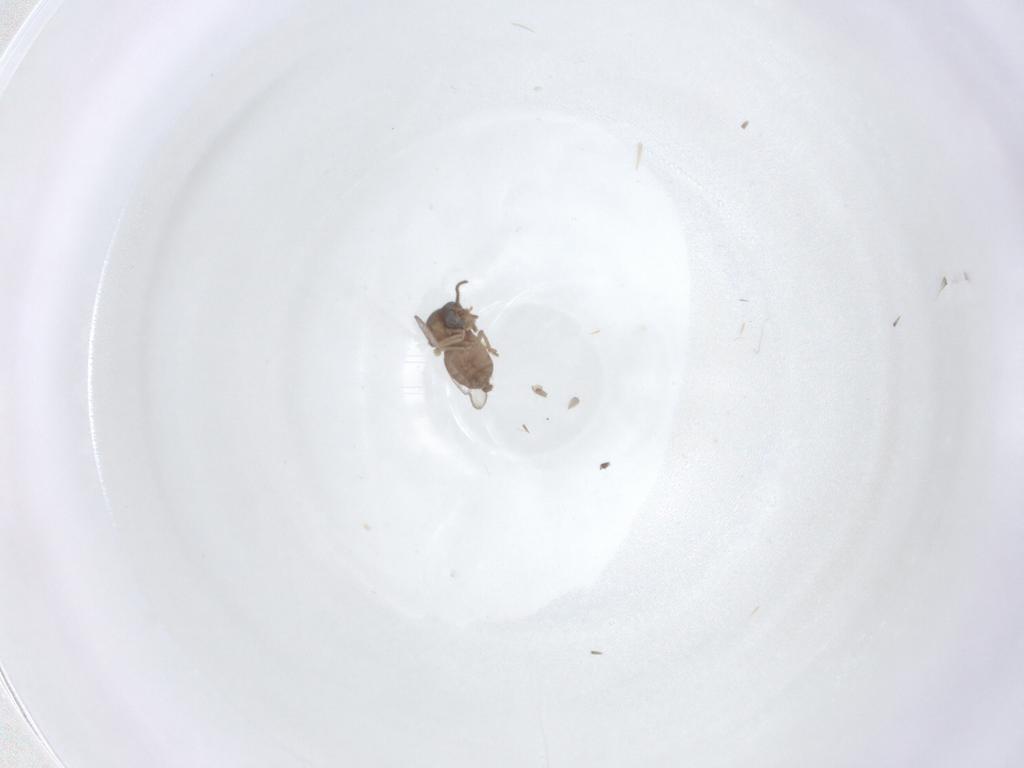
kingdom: Animalia
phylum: Arthropoda
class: Insecta
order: Diptera
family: Ceratopogonidae
